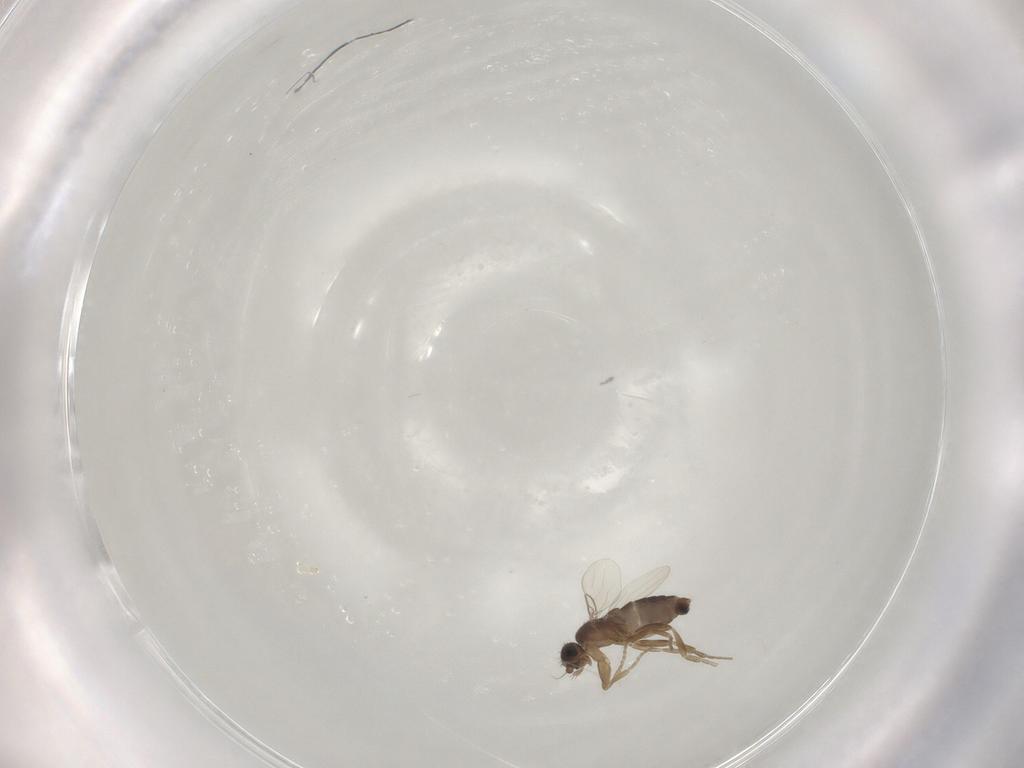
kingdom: Animalia
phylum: Arthropoda
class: Insecta
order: Diptera
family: Phoridae
